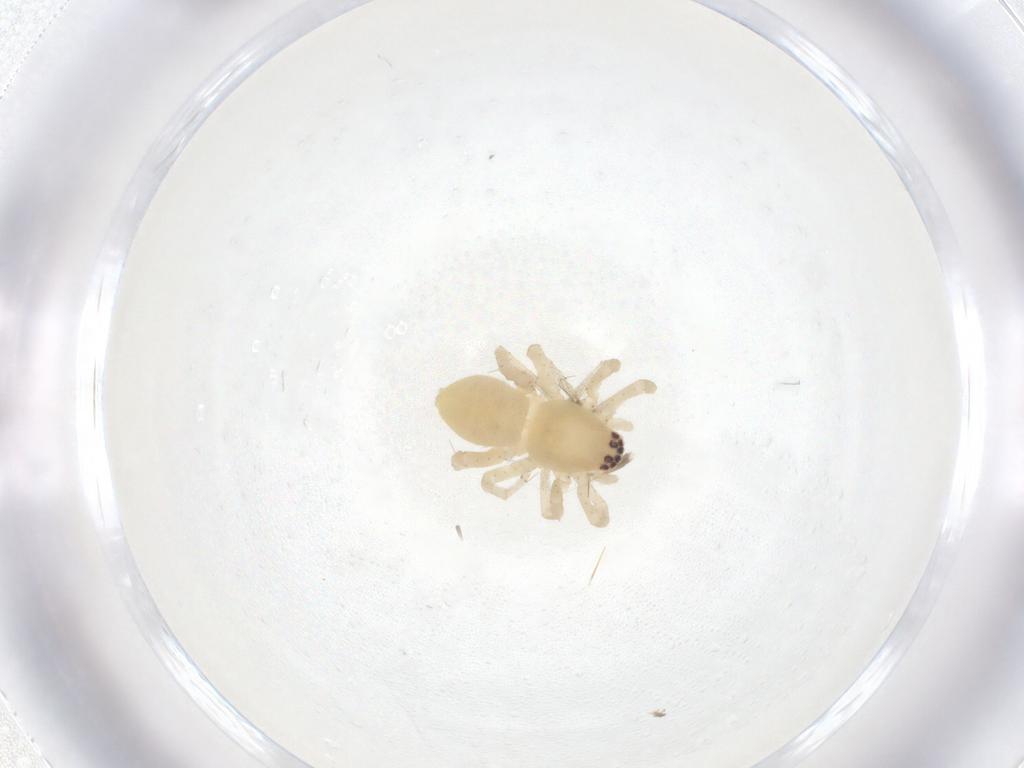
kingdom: Animalia
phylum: Arthropoda
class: Arachnida
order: Araneae
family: Clubionidae
